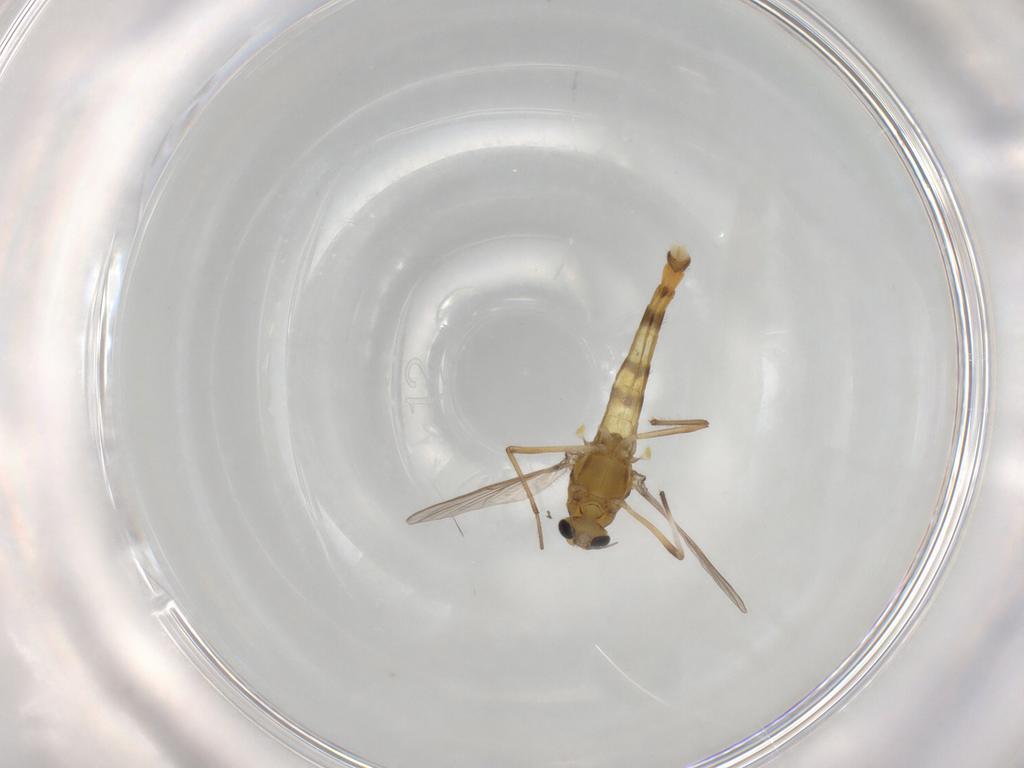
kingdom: Animalia
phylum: Arthropoda
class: Insecta
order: Diptera
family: Chironomidae
